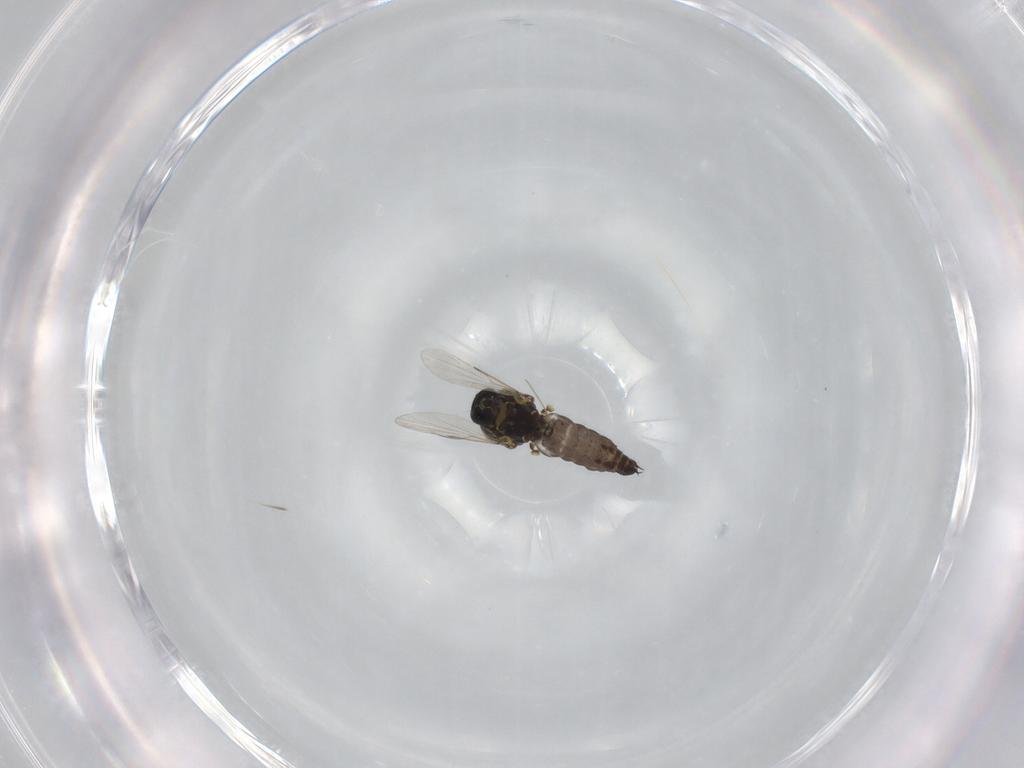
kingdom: Animalia
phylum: Arthropoda
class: Insecta
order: Diptera
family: Ceratopogonidae
